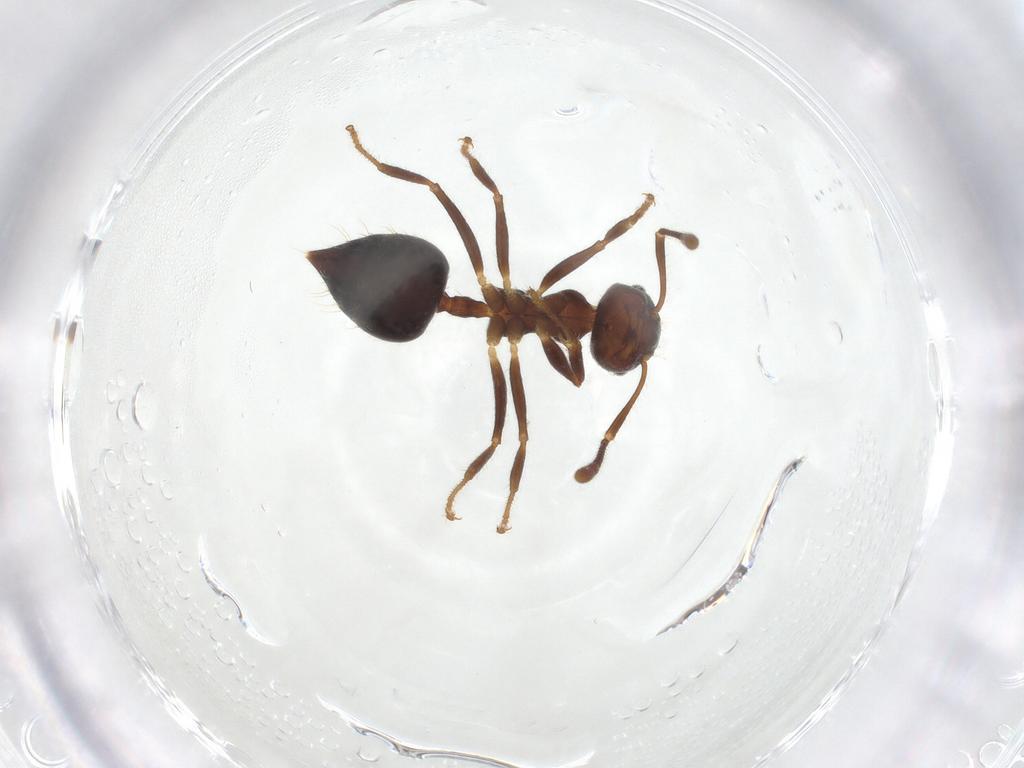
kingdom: Animalia
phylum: Arthropoda
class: Insecta
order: Hymenoptera
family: Formicidae
